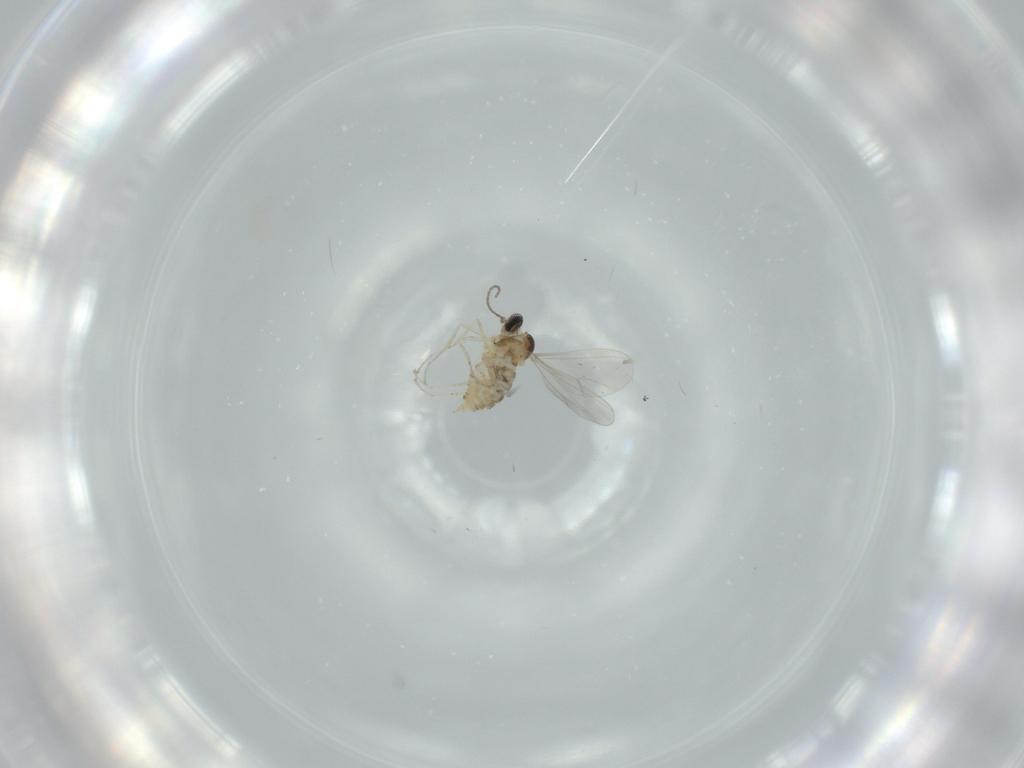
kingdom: Animalia
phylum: Arthropoda
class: Insecta
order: Diptera
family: Cecidomyiidae
